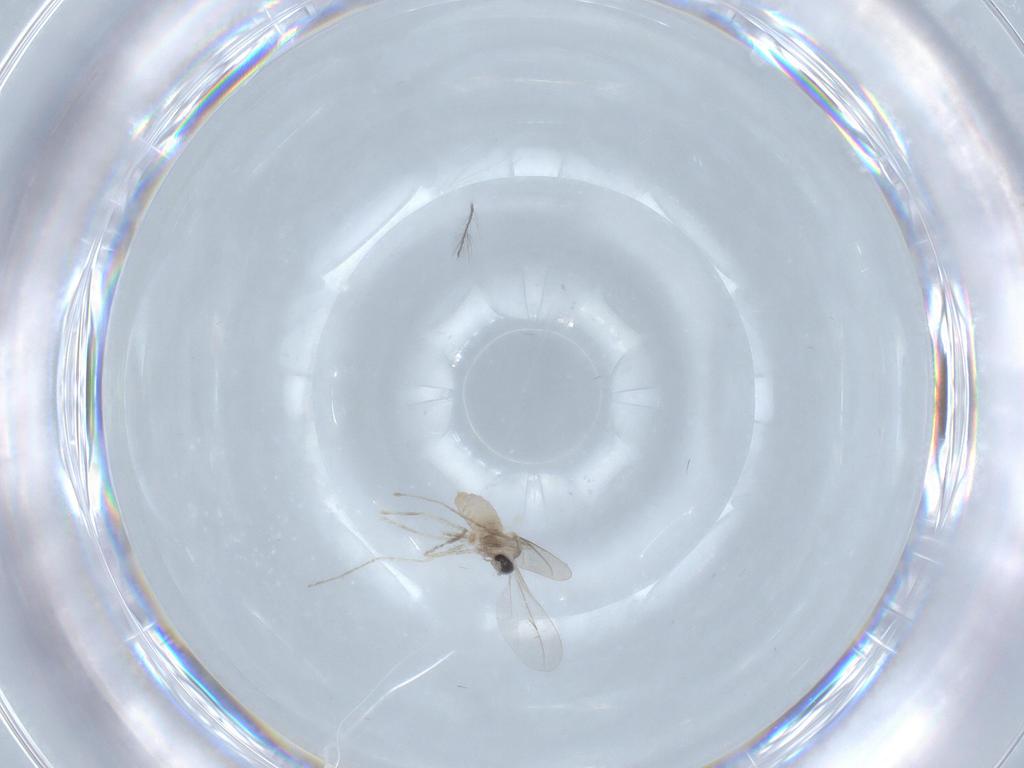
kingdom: Animalia
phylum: Arthropoda
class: Insecta
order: Diptera
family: Cecidomyiidae
